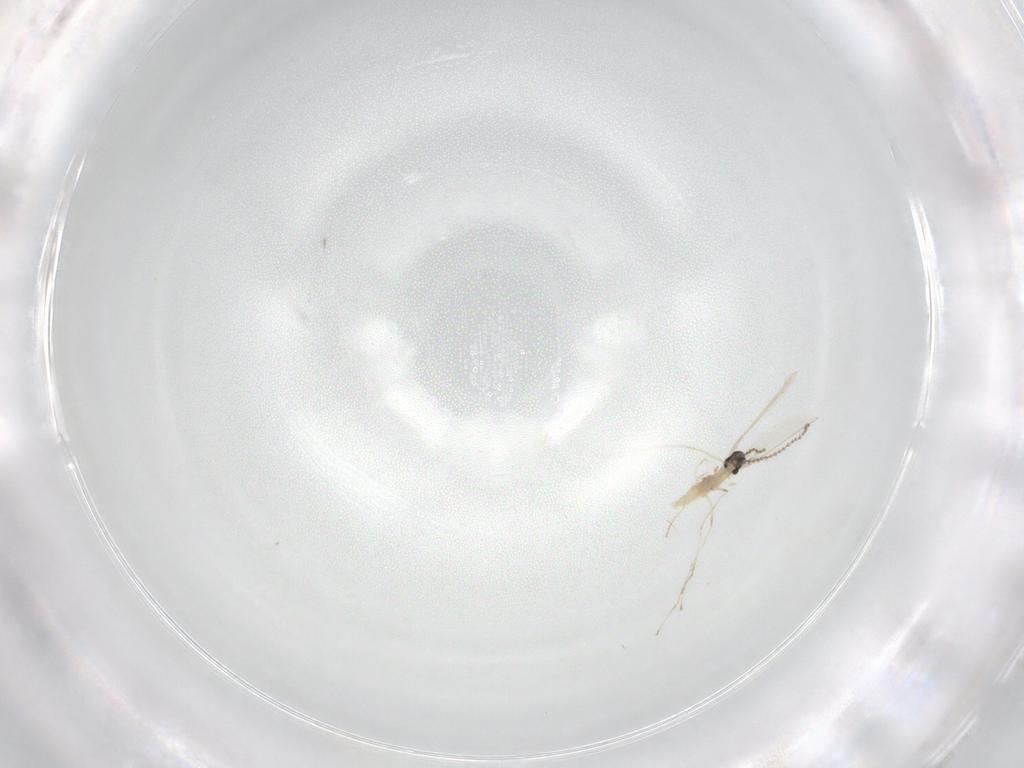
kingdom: Animalia
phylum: Arthropoda
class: Insecta
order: Diptera
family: Cecidomyiidae
